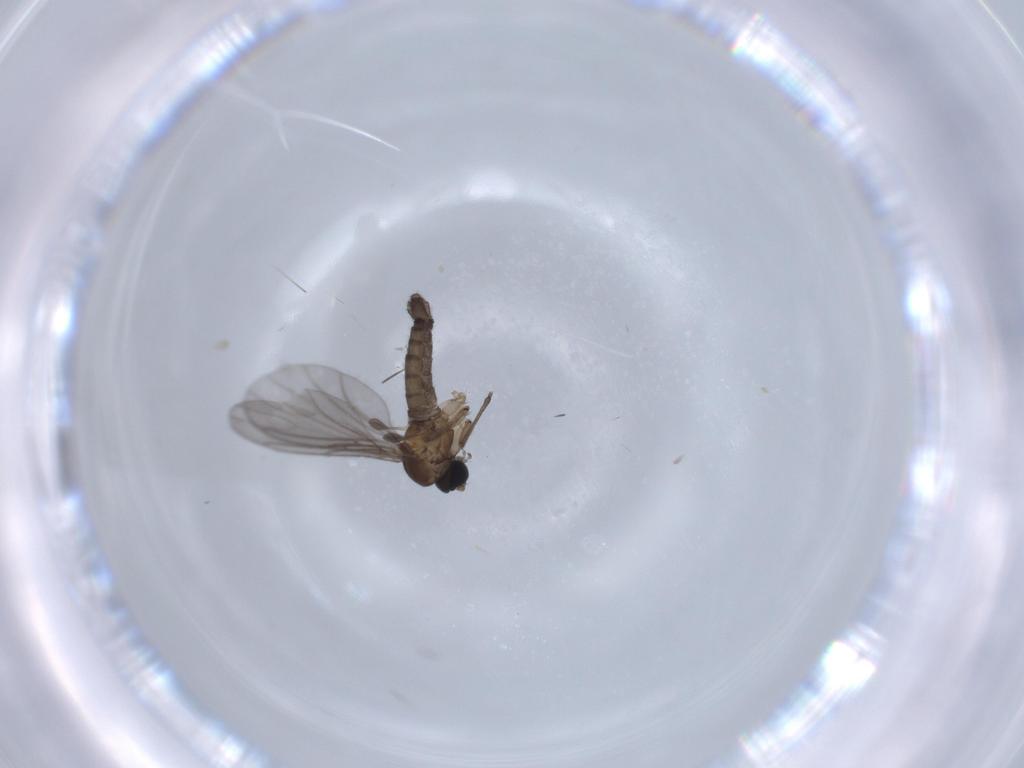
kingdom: Animalia
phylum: Arthropoda
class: Insecta
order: Diptera
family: Sciaridae
